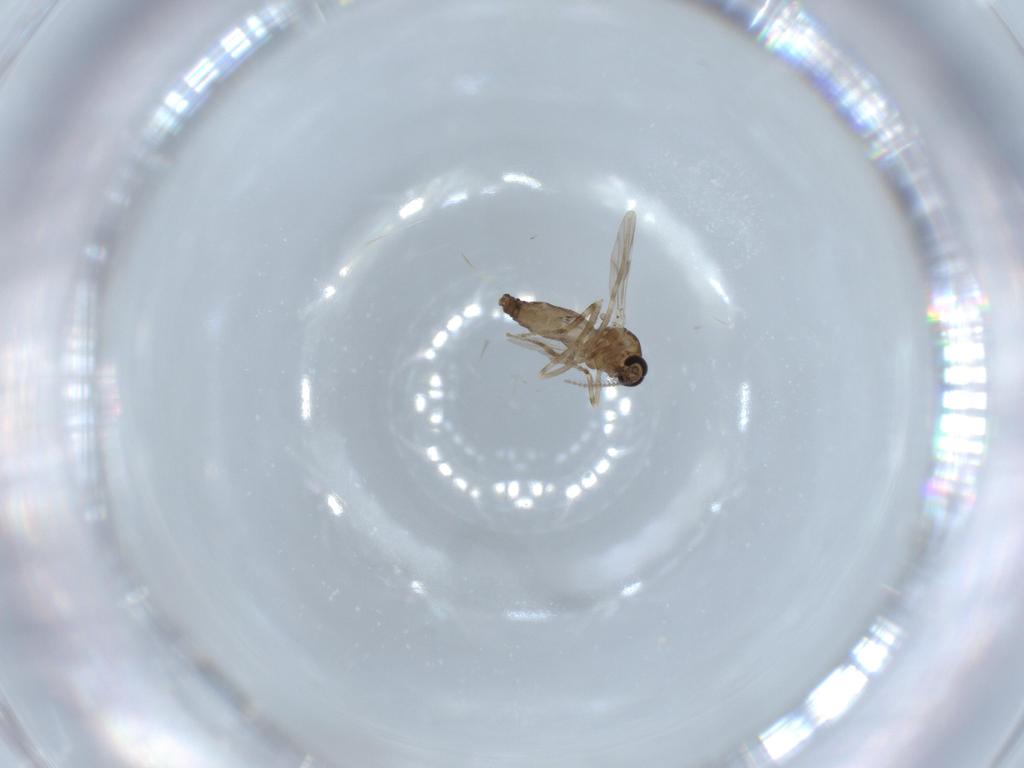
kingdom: Animalia
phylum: Arthropoda
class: Insecta
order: Diptera
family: Ceratopogonidae
